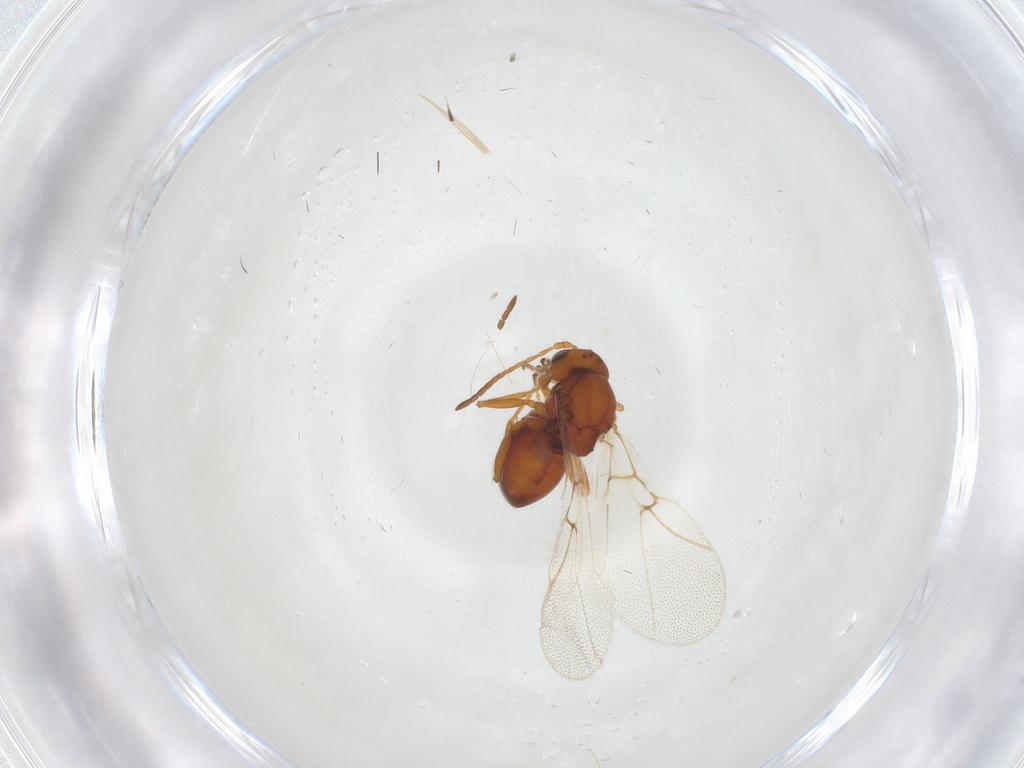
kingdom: Animalia
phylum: Arthropoda
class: Insecta
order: Hymenoptera
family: Cynipidae
